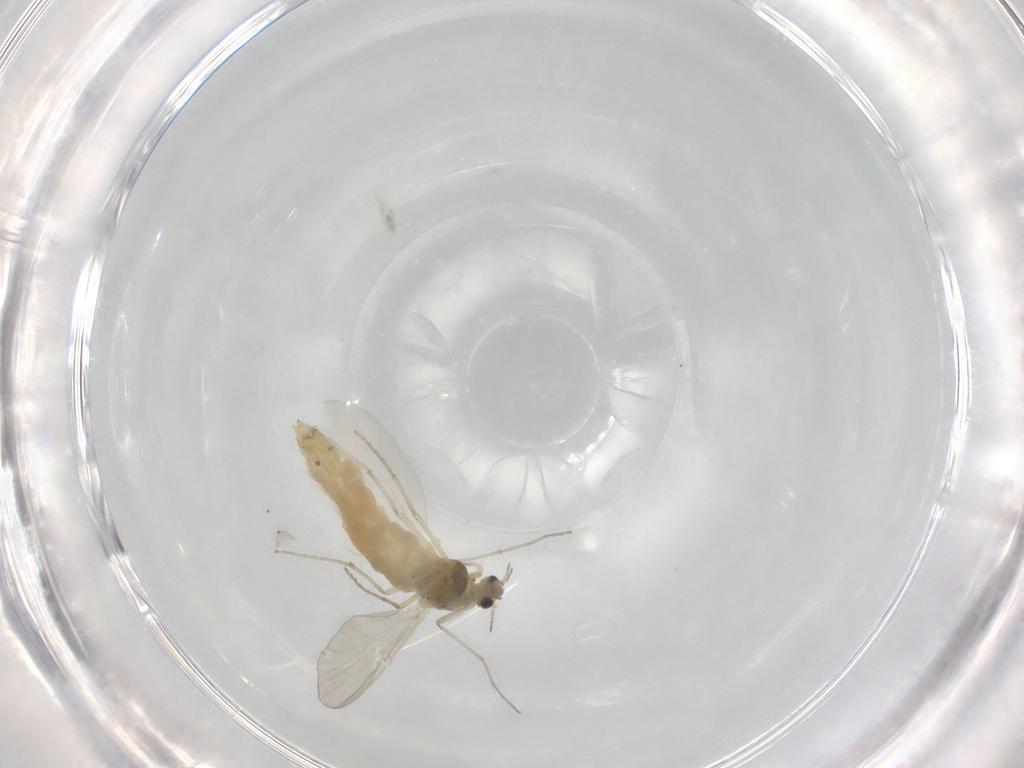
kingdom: Animalia
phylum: Arthropoda
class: Insecta
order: Diptera
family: Chironomidae
